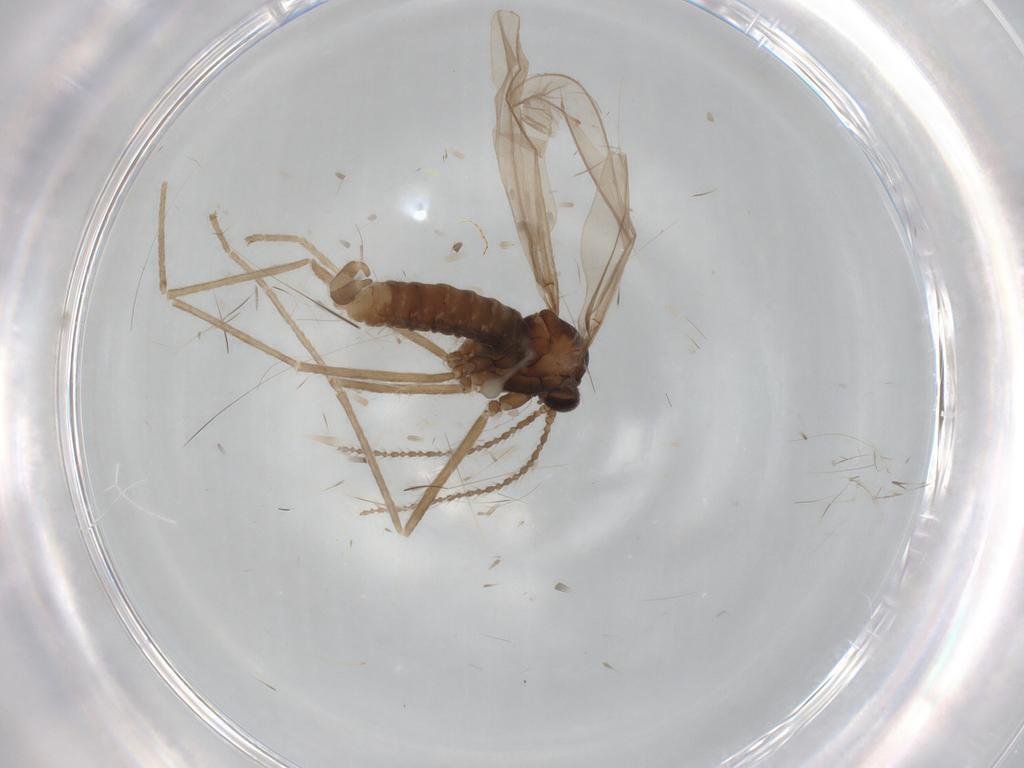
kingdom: Animalia
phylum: Arthropoda
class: Insecta
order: Diptera
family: Cecidomyiidae
